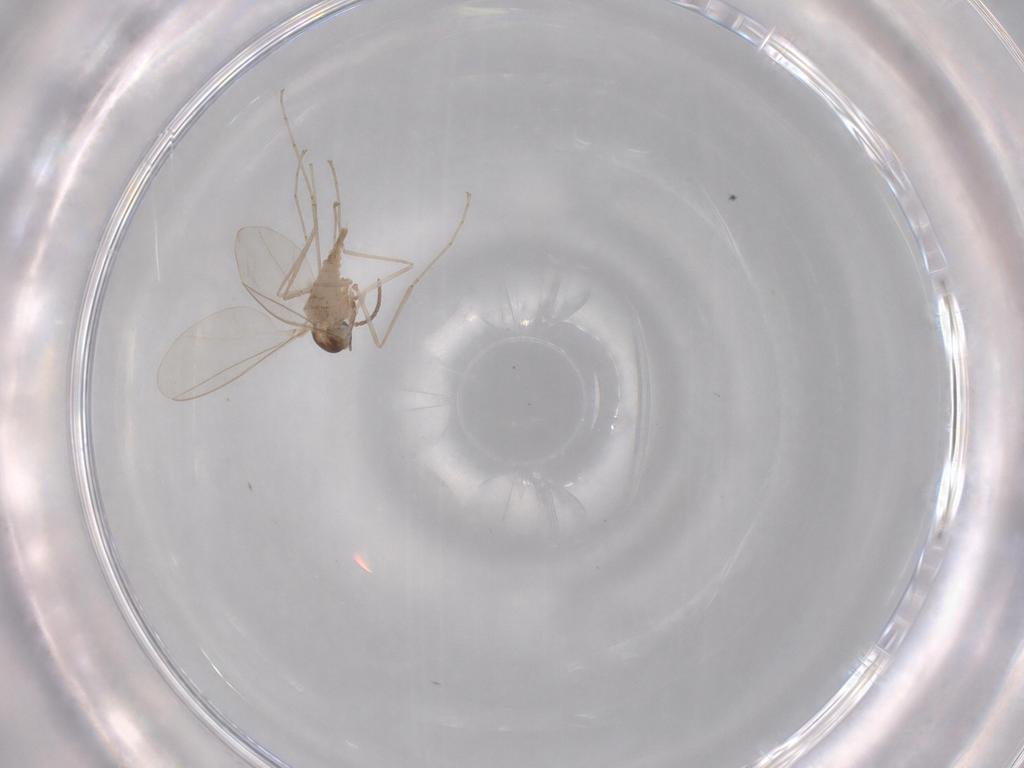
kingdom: Animalia
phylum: Arthropoda
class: Insecta
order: Diptera
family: Cecidomyiidae
